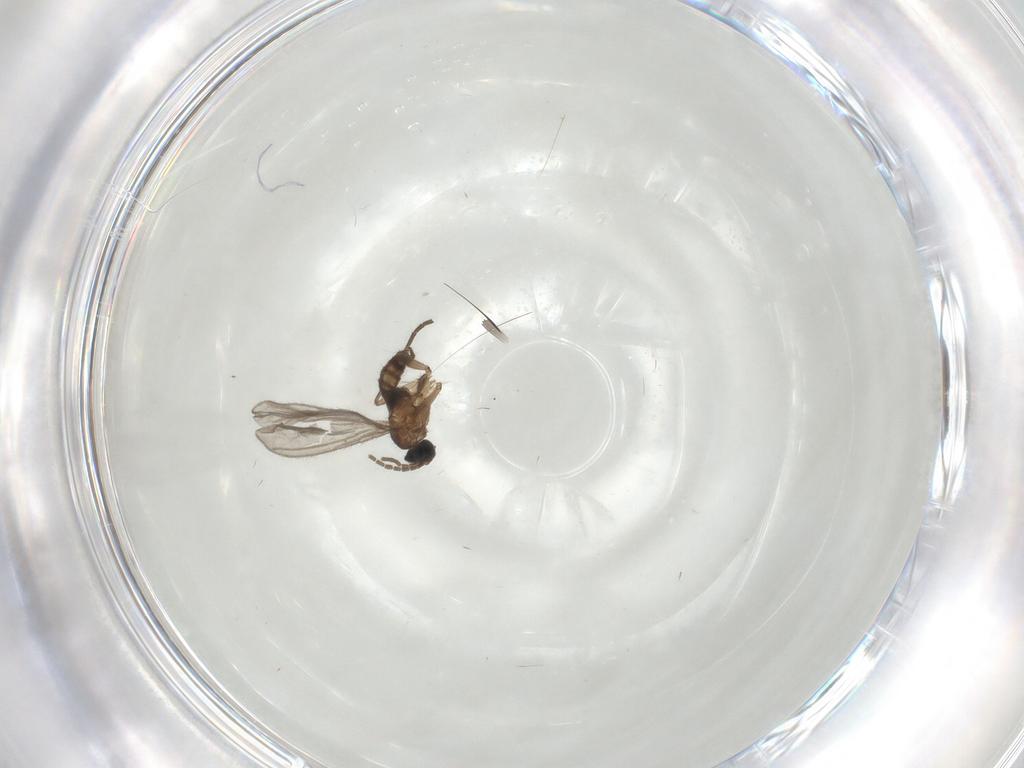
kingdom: Animalia
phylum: Arthropoda
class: Insecta
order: Diptera
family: Sciaridae
